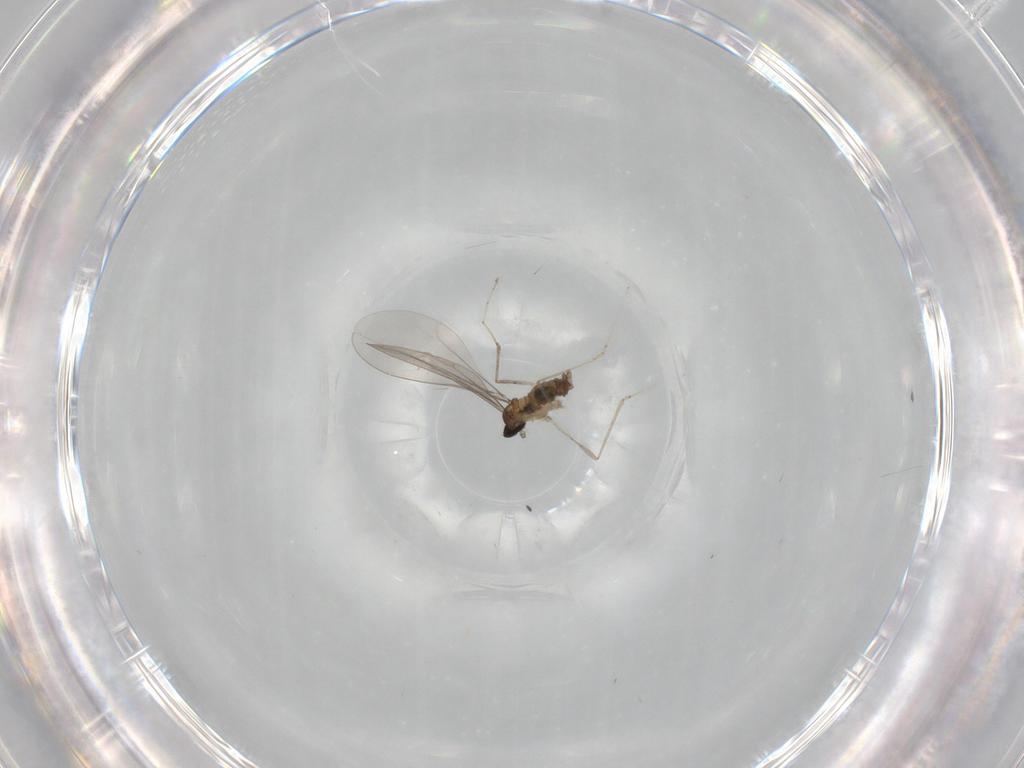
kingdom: Animalia
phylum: Arthropoda
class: Insecta
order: Diptera
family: Cecidomyiidae
